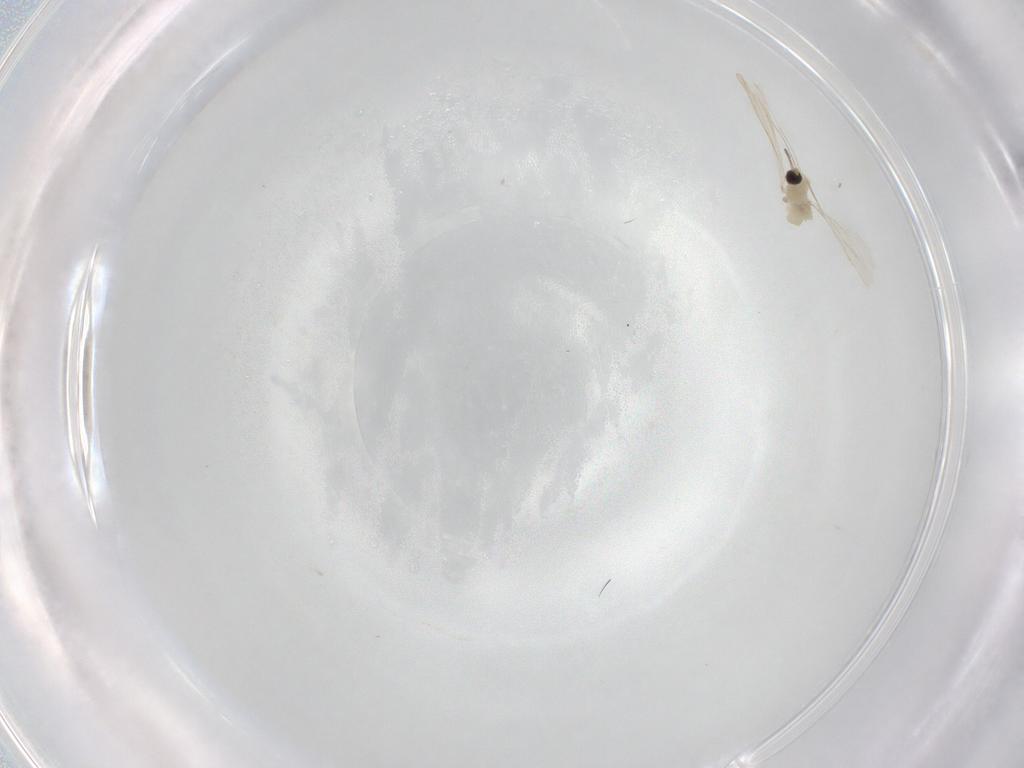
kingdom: Animalia
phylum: Arthropoda
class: Insecta
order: Diptera
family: Cecidomyiidae
